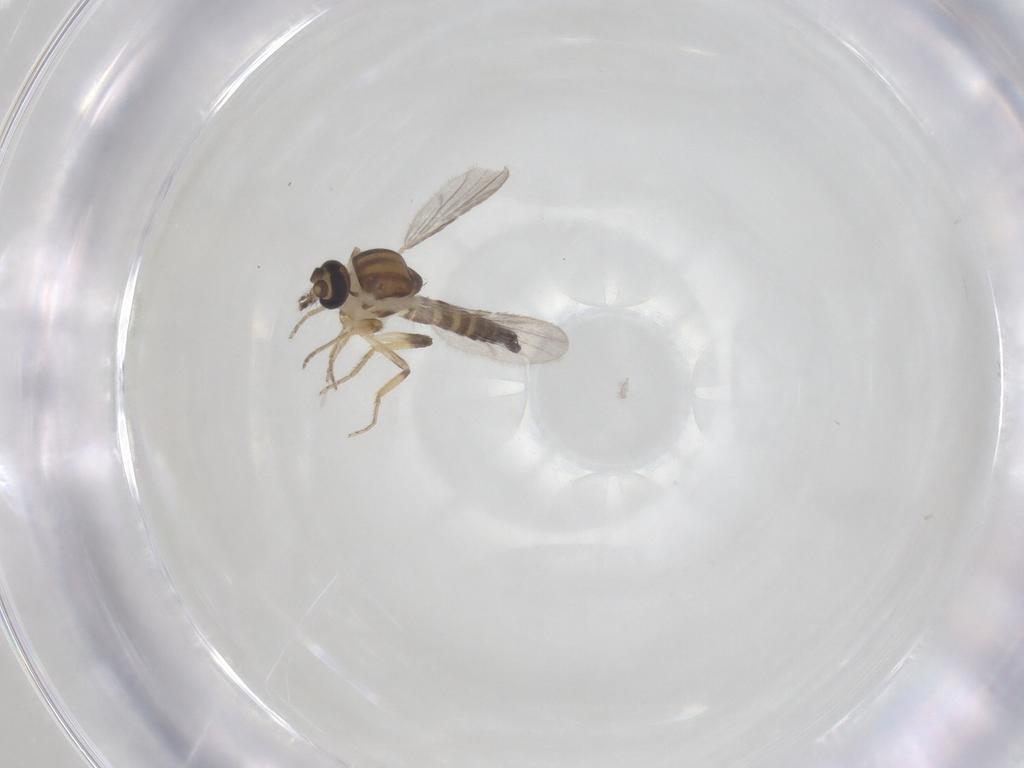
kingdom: Animalia
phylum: Arthropoda
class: Insecta
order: Diptera
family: Ceratopogonidae
